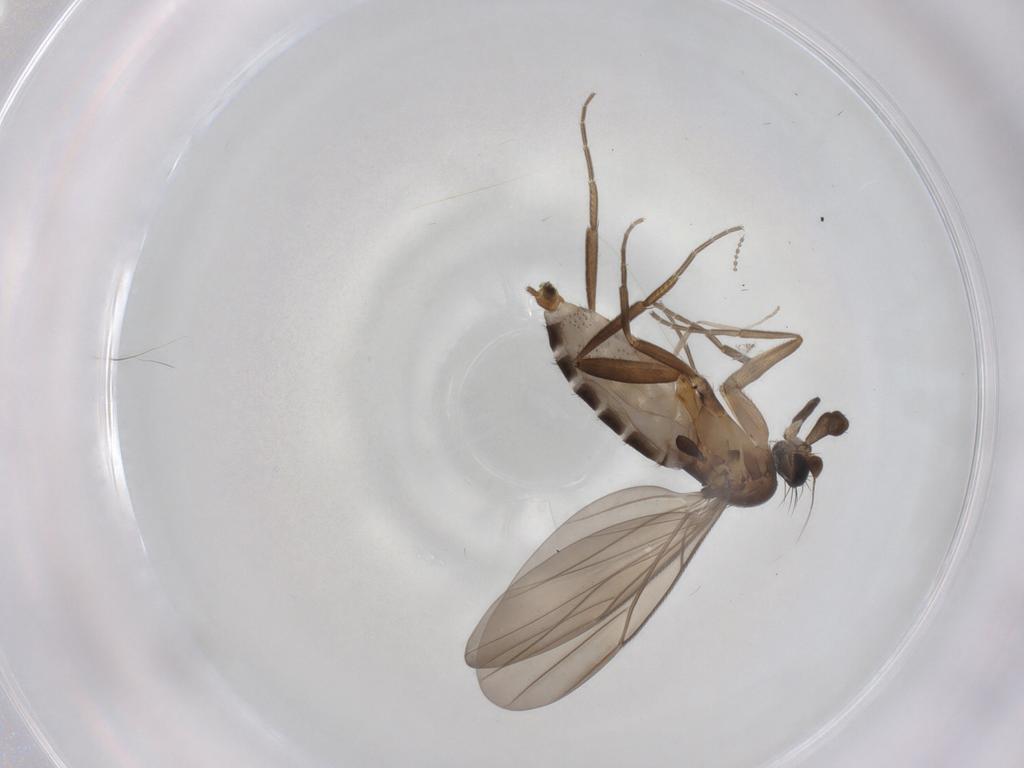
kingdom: Animalia
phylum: Arthropoda
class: Insecta
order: Diptera
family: Psychodidae
